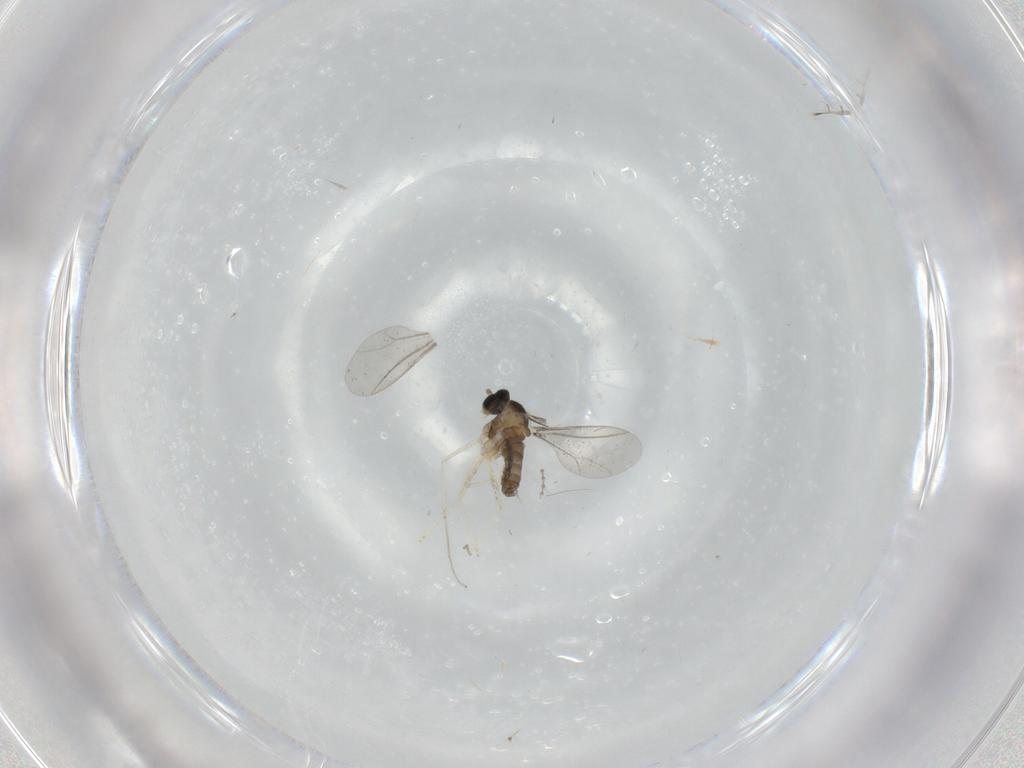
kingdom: Animalia
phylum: Arthropoda
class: Insecta
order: Diptera
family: Cecidomyiidae
